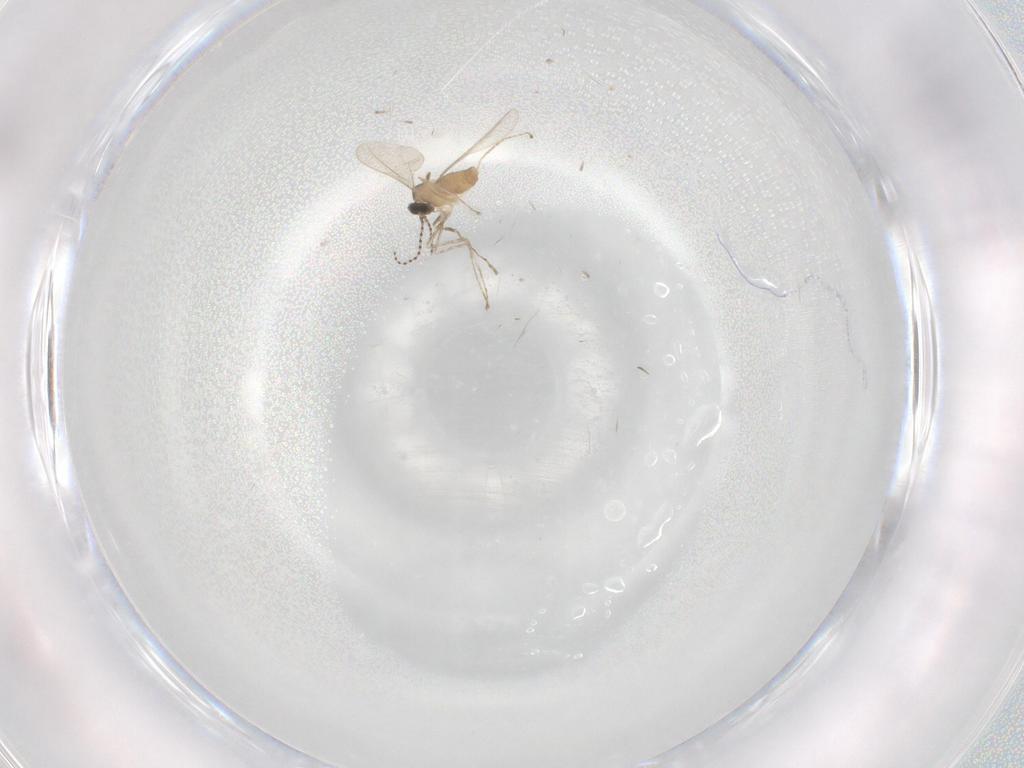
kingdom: Animalia
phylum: Arthropoda
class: Insecta
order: Diptera
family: Cecidomyiidae
